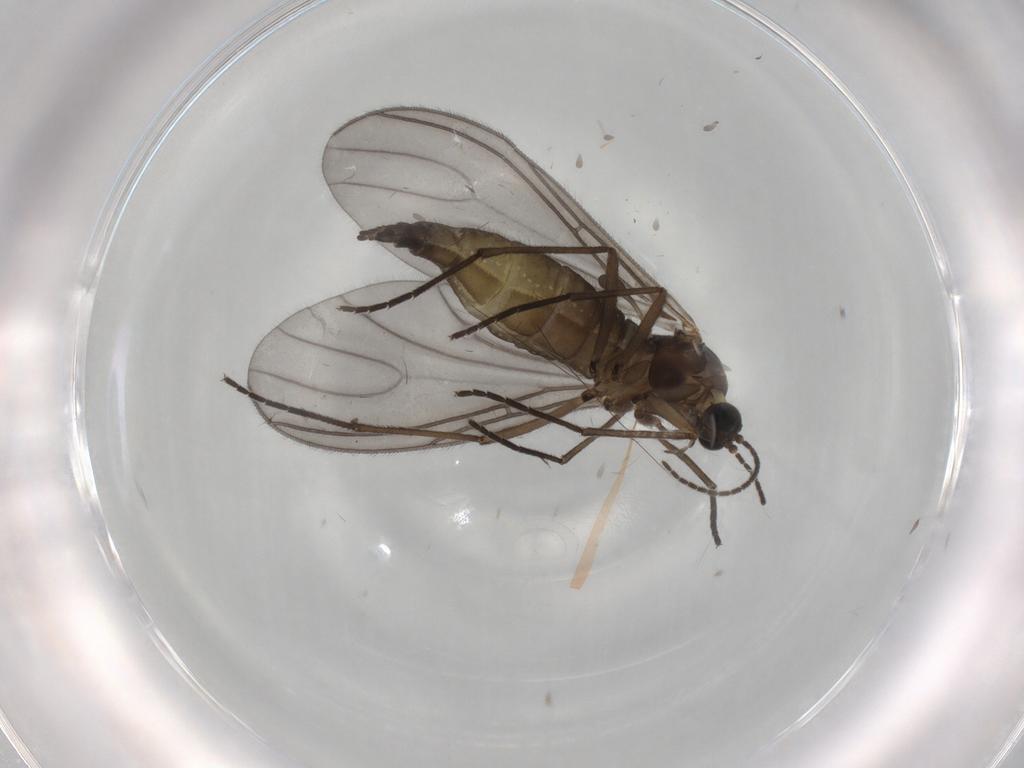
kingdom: Animalia
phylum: Arthropoda
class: Insecta
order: Diptera
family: Sciaridae
